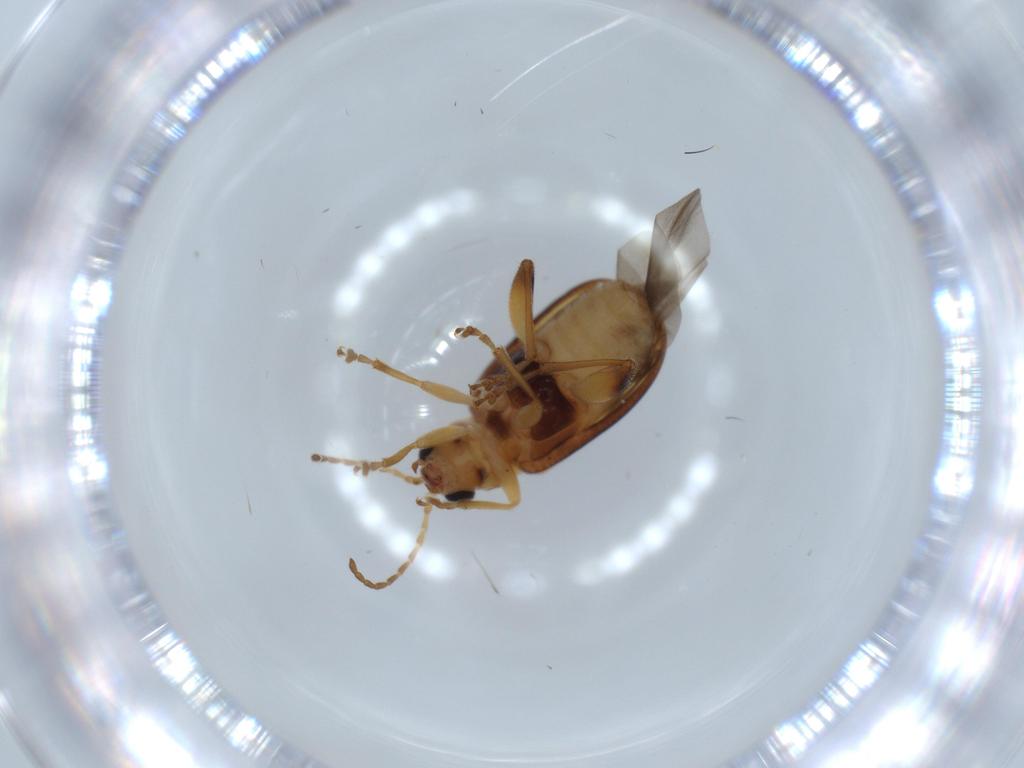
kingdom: Animalia
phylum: Arthropoda
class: Insecta
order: Coleoptera
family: Chrysomelidae
